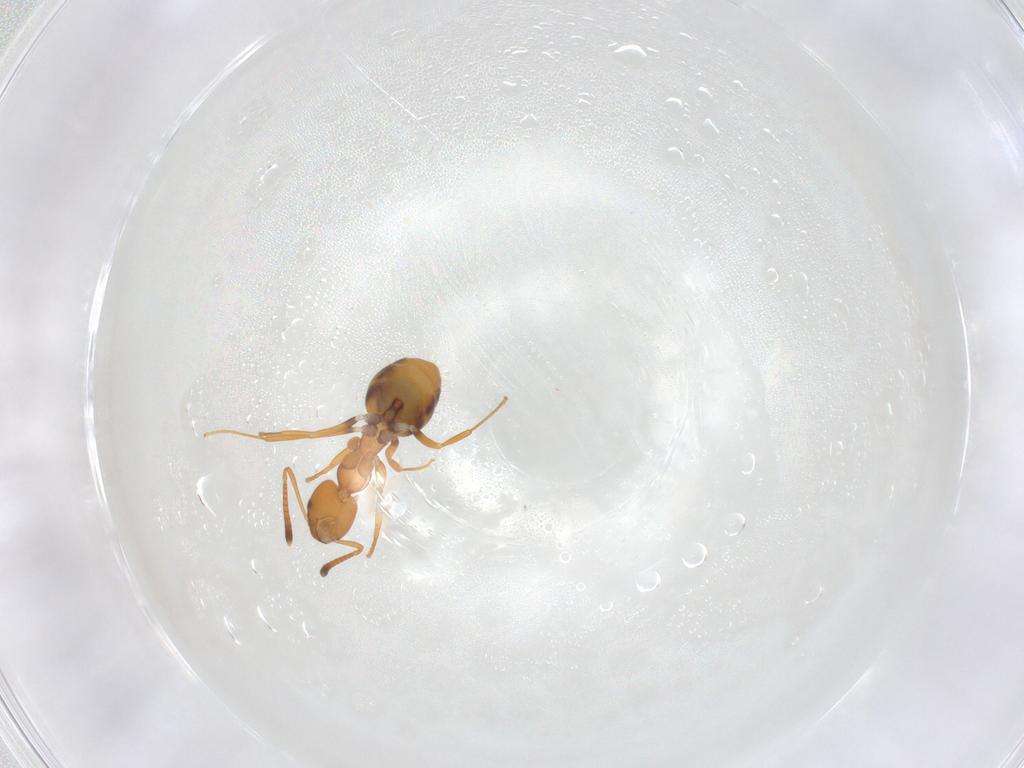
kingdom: Animalia
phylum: Arthropoda
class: Insecta
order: Hymenoptera
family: Formicidae
